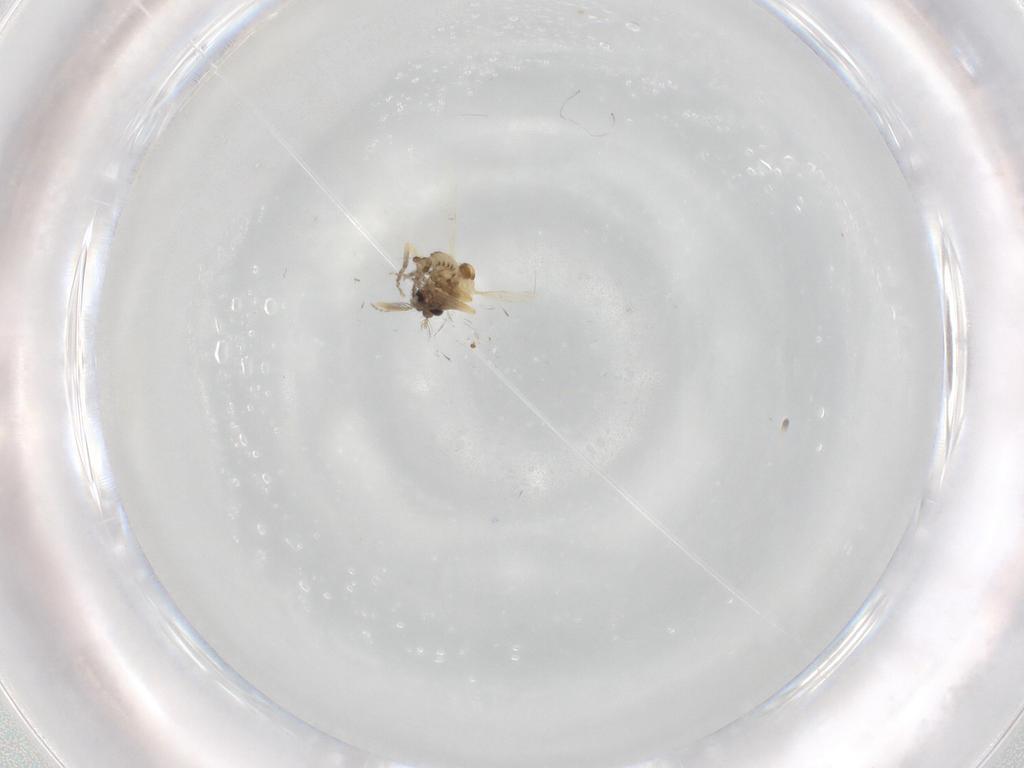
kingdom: Animalia
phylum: Arthropoda
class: Insecta
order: Diptera
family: Ceratopogonidae
